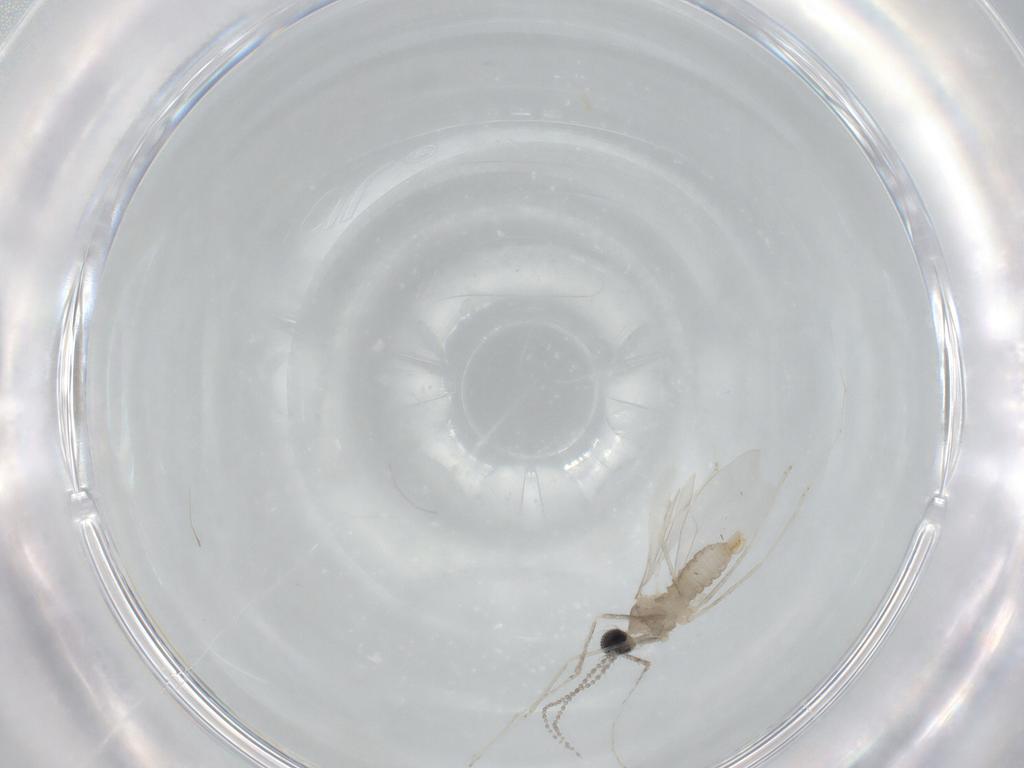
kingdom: Animalia
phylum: Arthropoda
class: Insecta
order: Diptera
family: Cecidomyiidae
